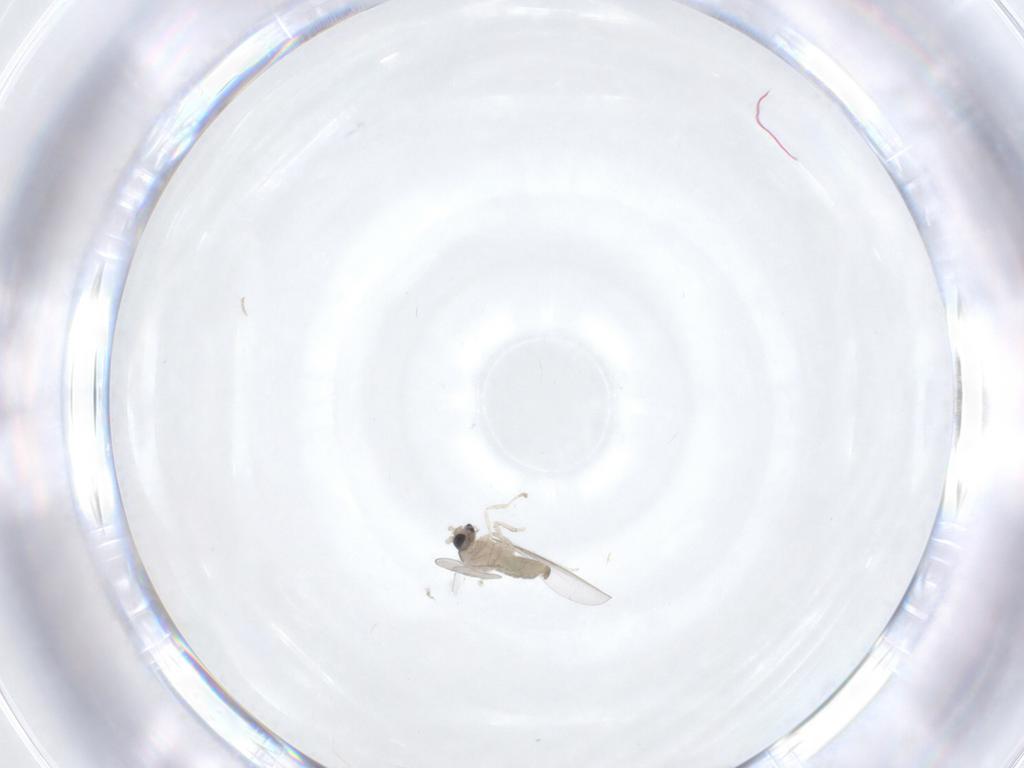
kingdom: Animalia
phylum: Arthropoda
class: Insecta
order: Diptera
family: Cecidomyiidae
